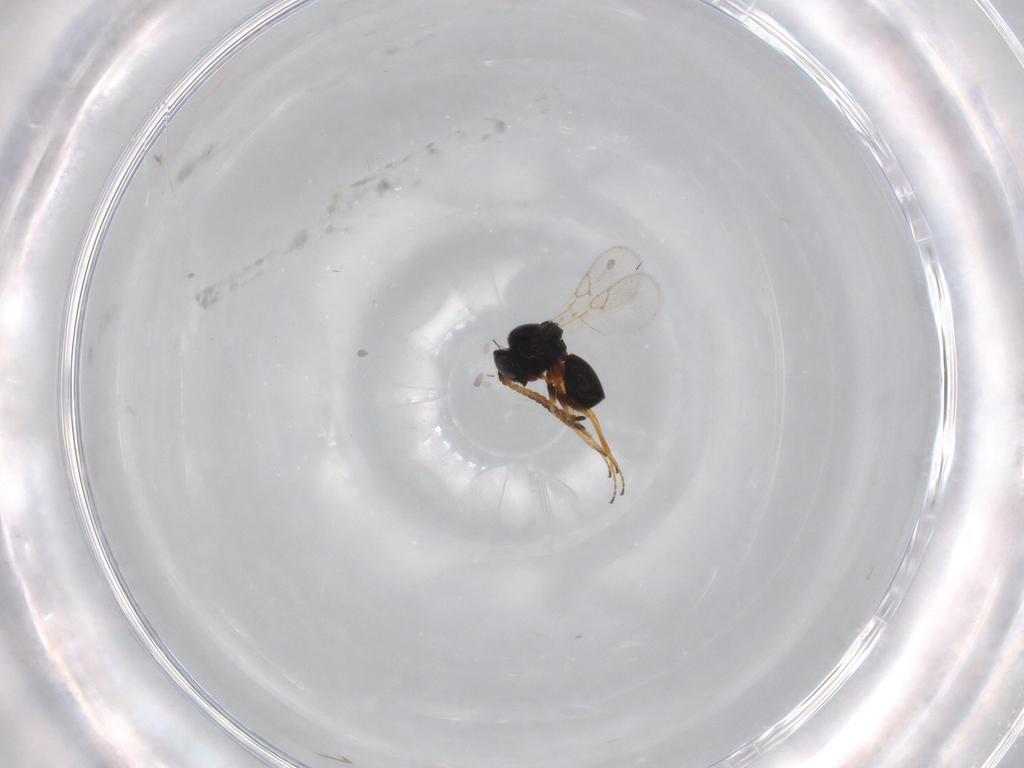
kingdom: Animalia
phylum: Arthropoda
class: Insecta
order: Hymenoptera
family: Figitidae
